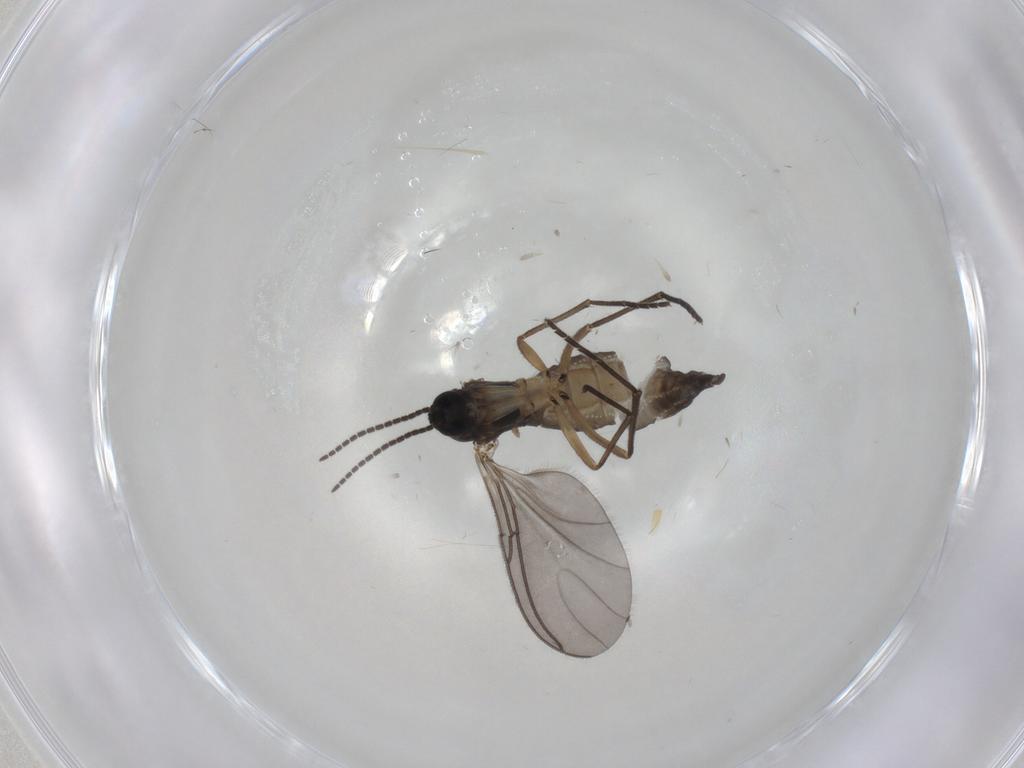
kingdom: Animalia
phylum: Arthropoda
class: Insecta
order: Diptera
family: Sciaridae
